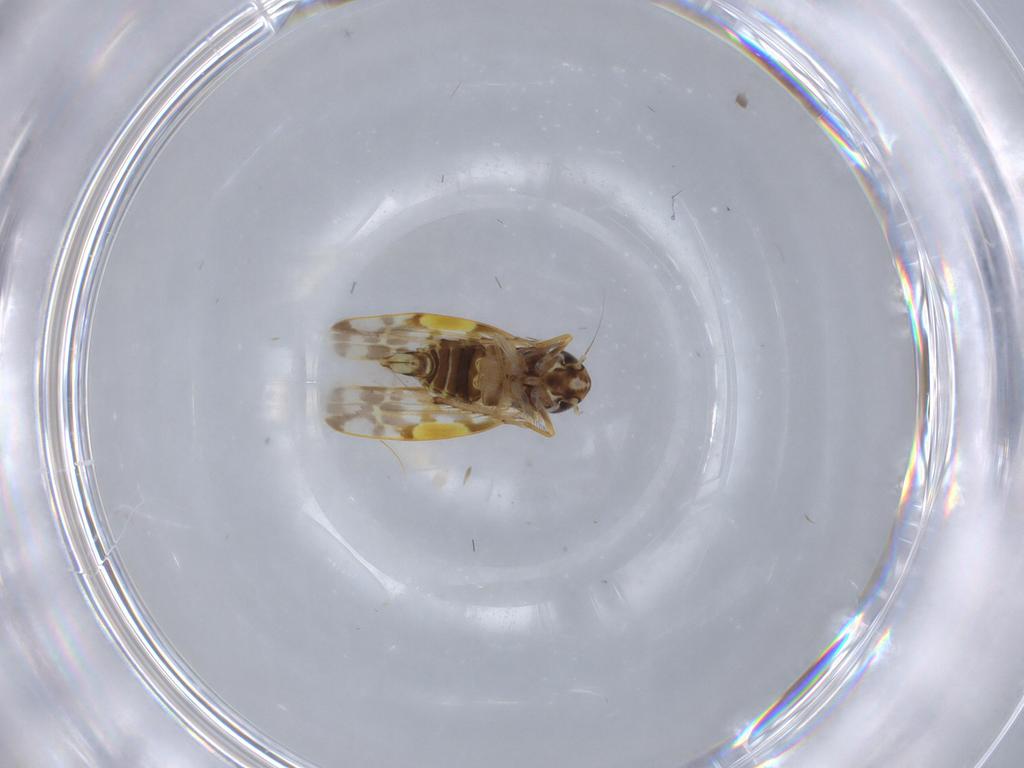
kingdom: Animalia
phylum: Arthropoda
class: Insecta
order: Hemiptera
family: Cicadellidae
